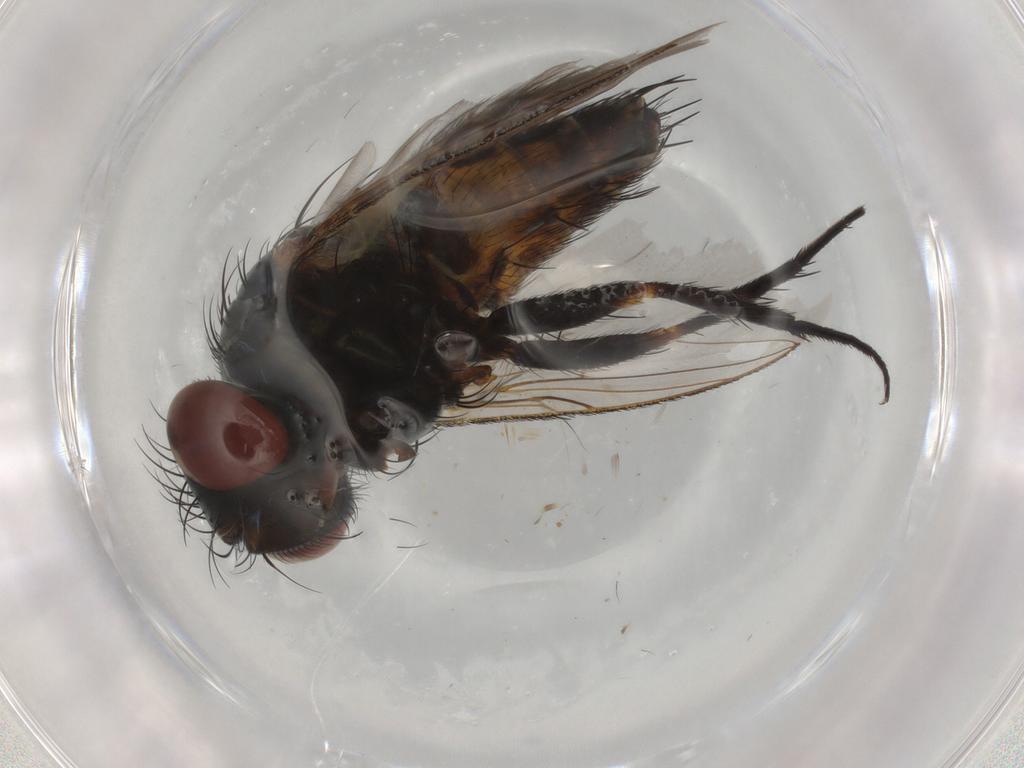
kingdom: Animalia
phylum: Arthropoda
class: Insecta
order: Diptera
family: Sarcophagidae
